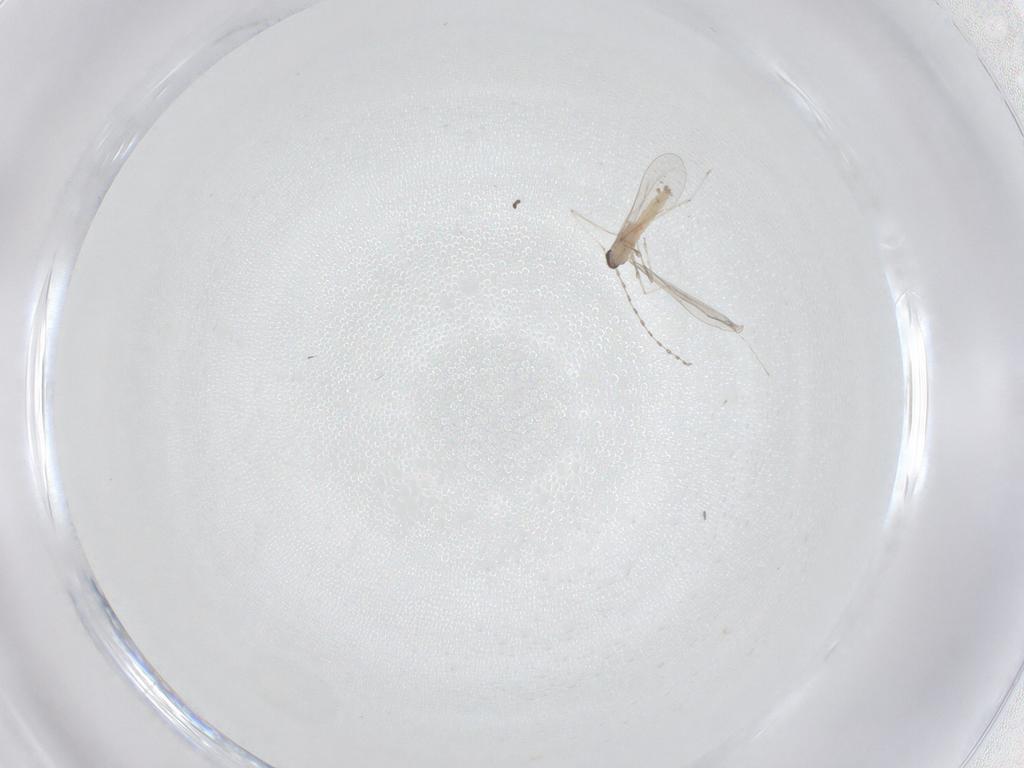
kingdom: Animalia
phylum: Arthropoda
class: Insecta
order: Diptera
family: Cecidomyiidae
